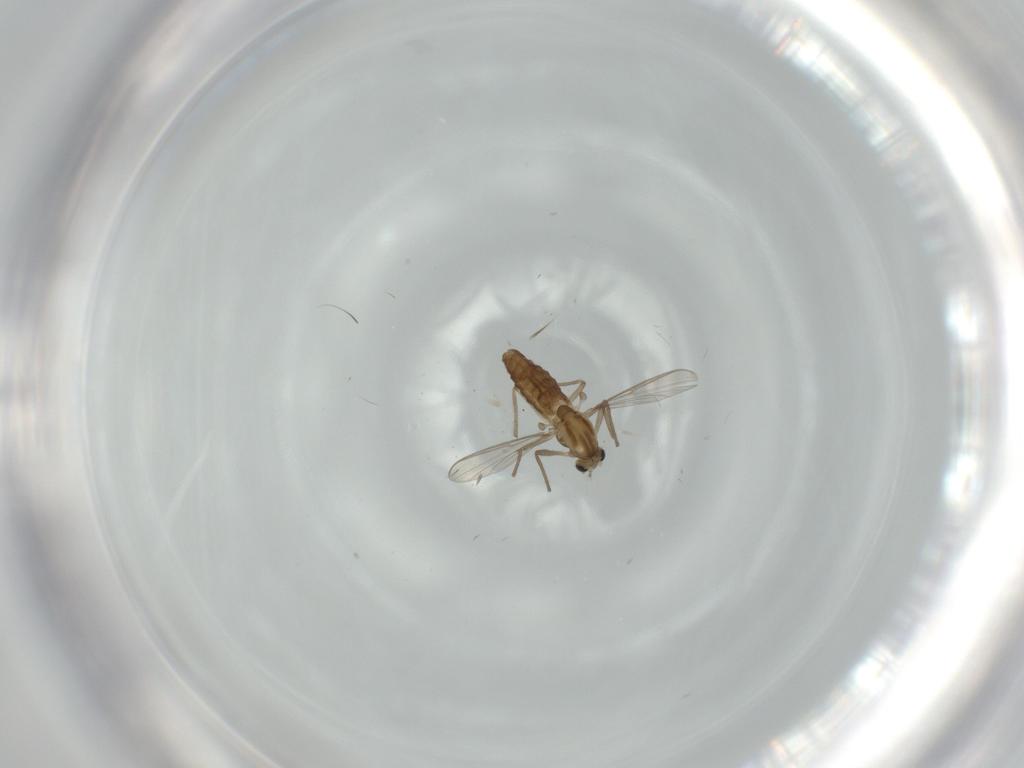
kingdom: Animalia
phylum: Arthropoda
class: Insecta
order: Diptera
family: Chironomidae
